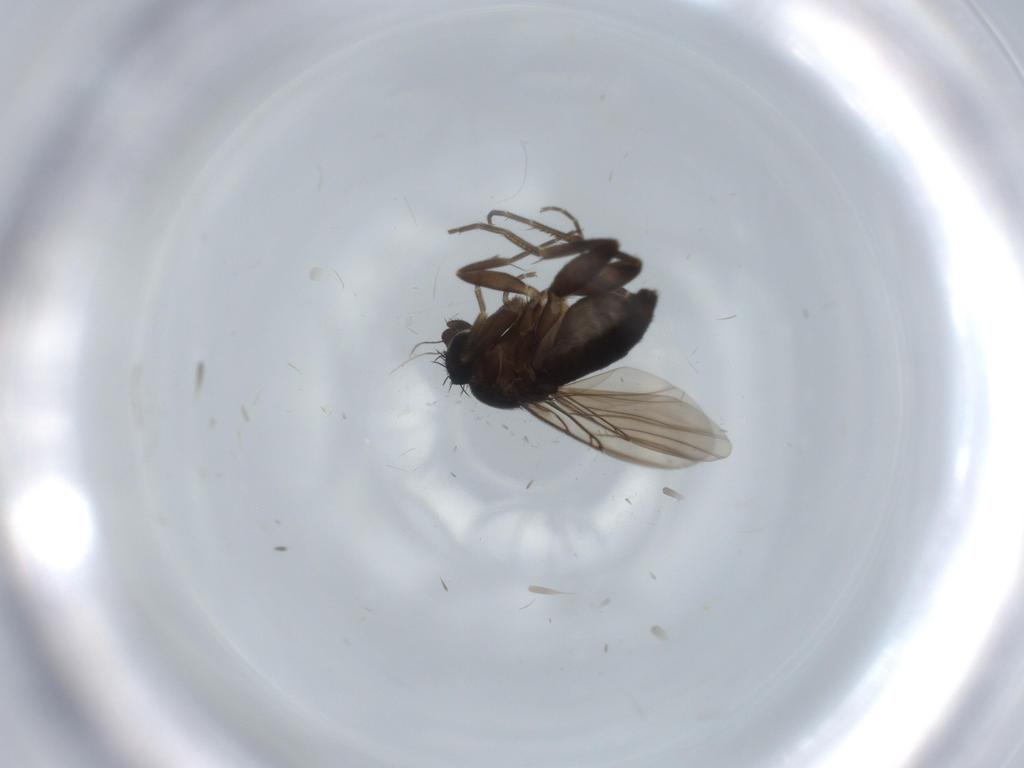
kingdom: Animalia
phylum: Arthropoda
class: Insecta
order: Diptera
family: Phoridae
